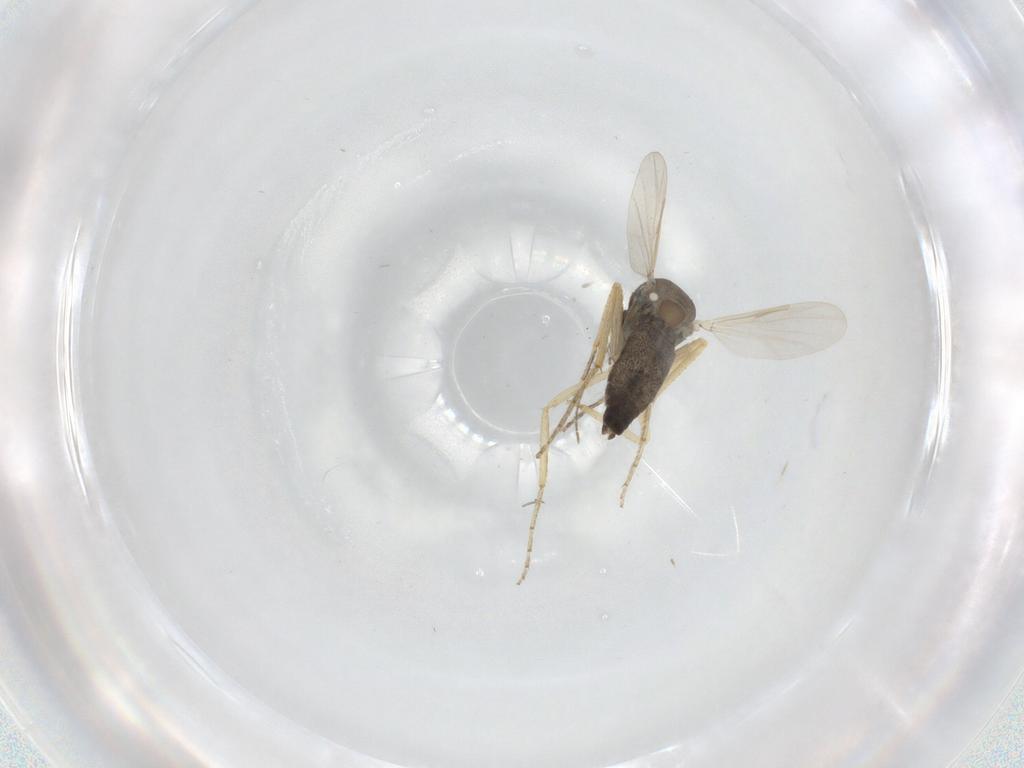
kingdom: Animalia
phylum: Arthropoda
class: Insecta
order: Diptera
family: Ceratopogonidae
